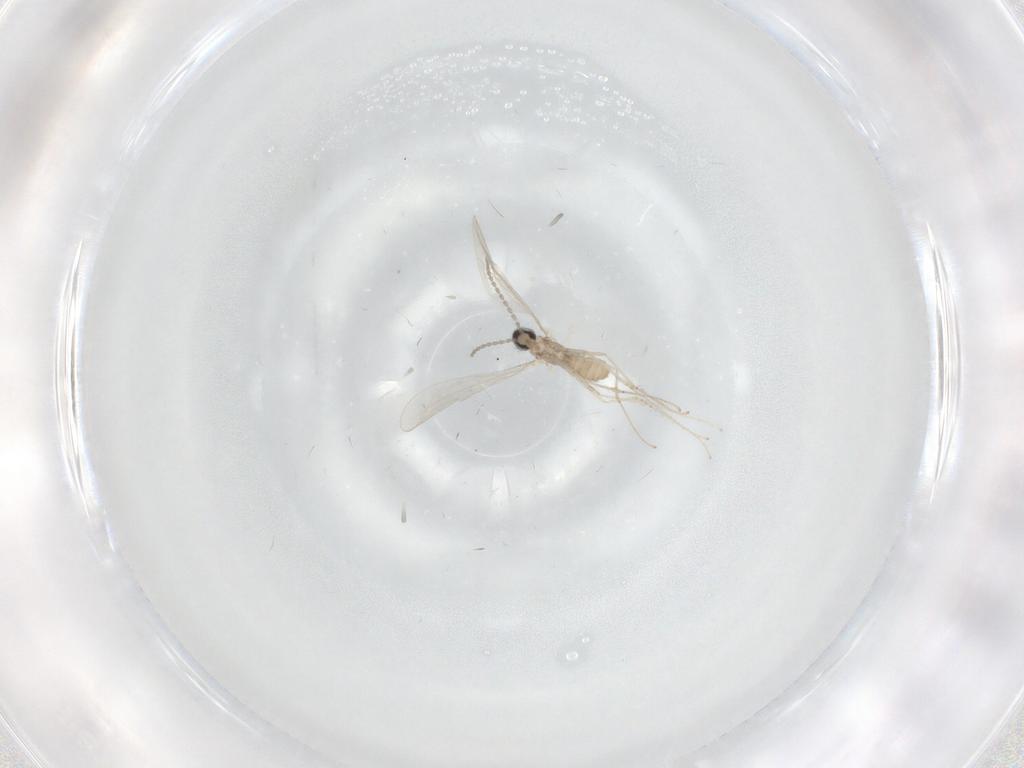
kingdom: Animalia
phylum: Arthropoda
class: Insecta
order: Diptera
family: Cecidomyiidae
